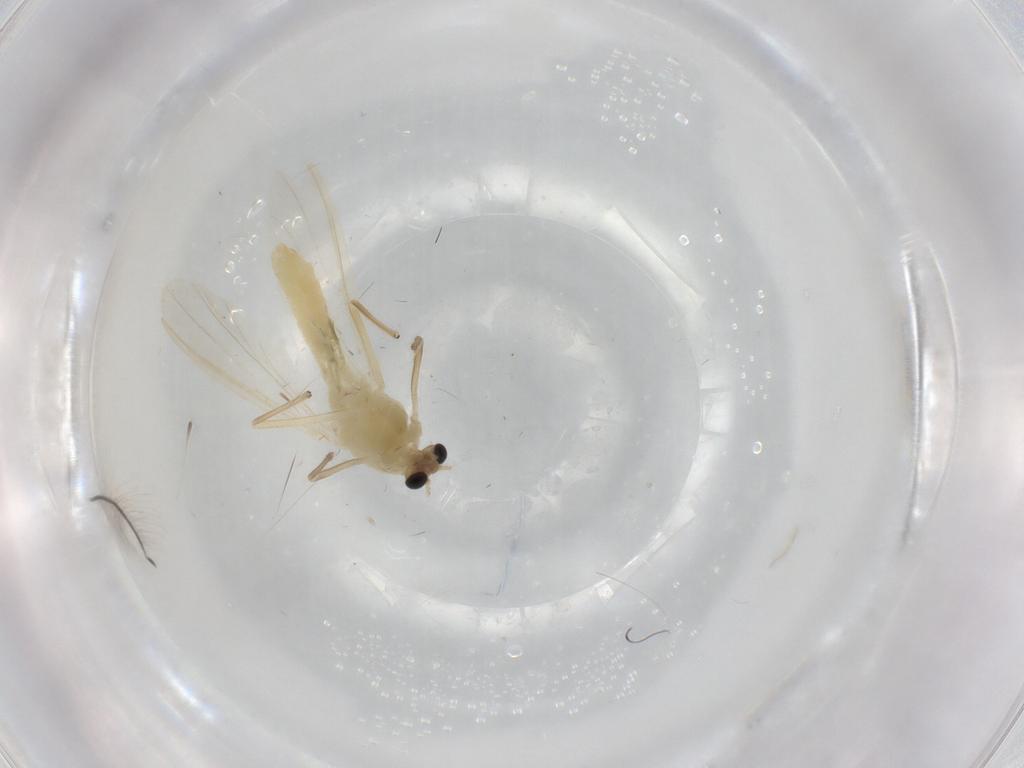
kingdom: Animalia
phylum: Arthropoda
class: Insecta
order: Diptera
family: Chironomidae
